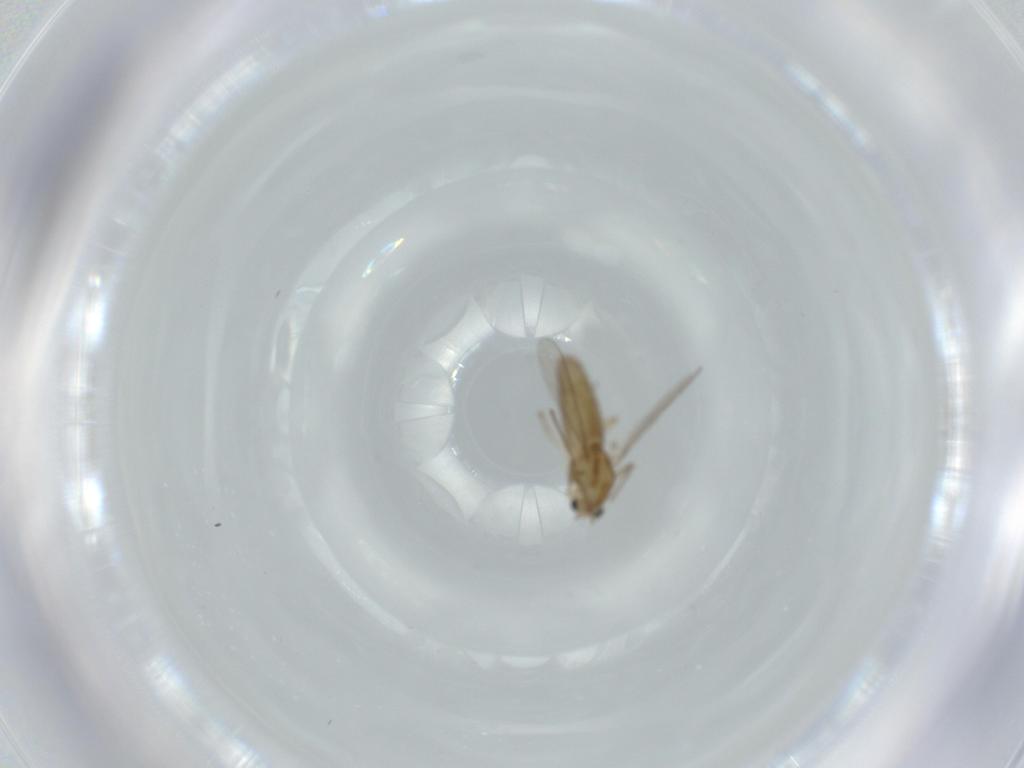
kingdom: Animalia
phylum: Arthropoda
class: Insecta
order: Diptera
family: Chironomidae
